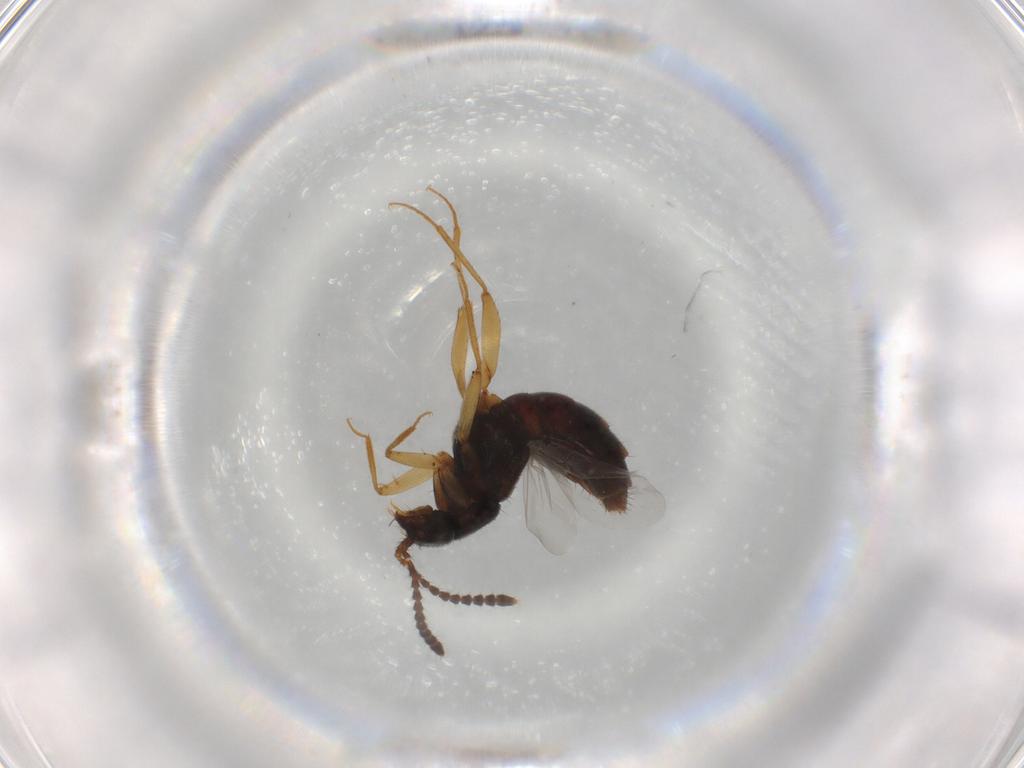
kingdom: Animalia
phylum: Arthropoda
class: Insecta
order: Coleoptera
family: Staphylinidae
